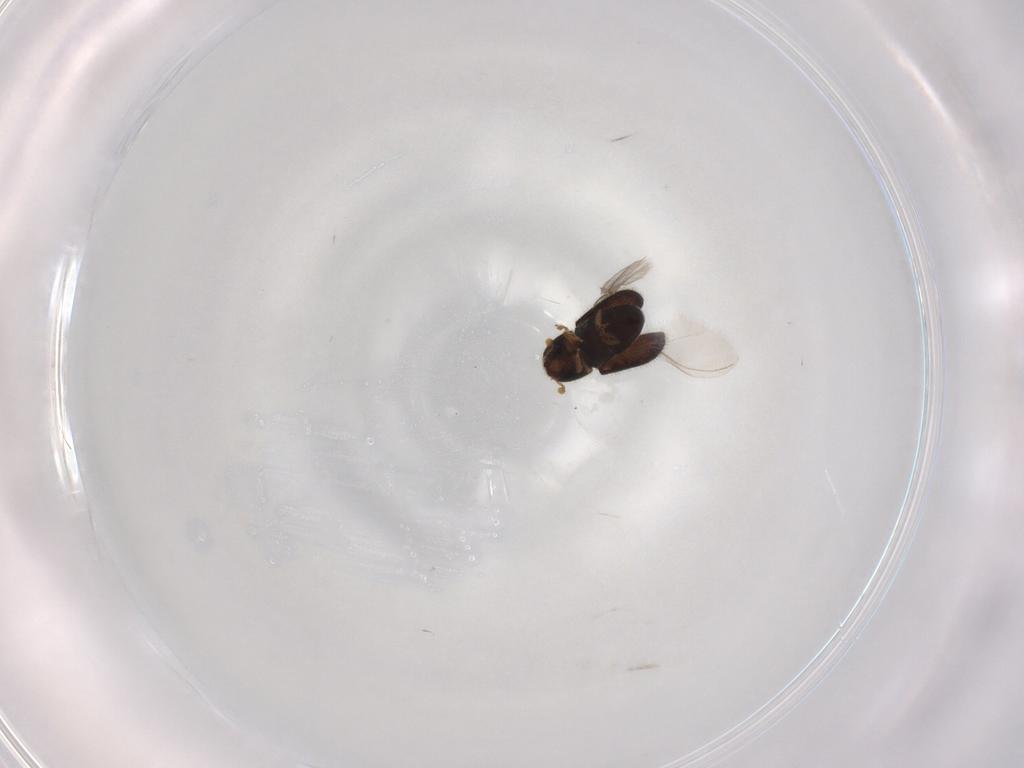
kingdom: Animalia
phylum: Arthropoda
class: Insecta
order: Coleoptera
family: Curculionidae
